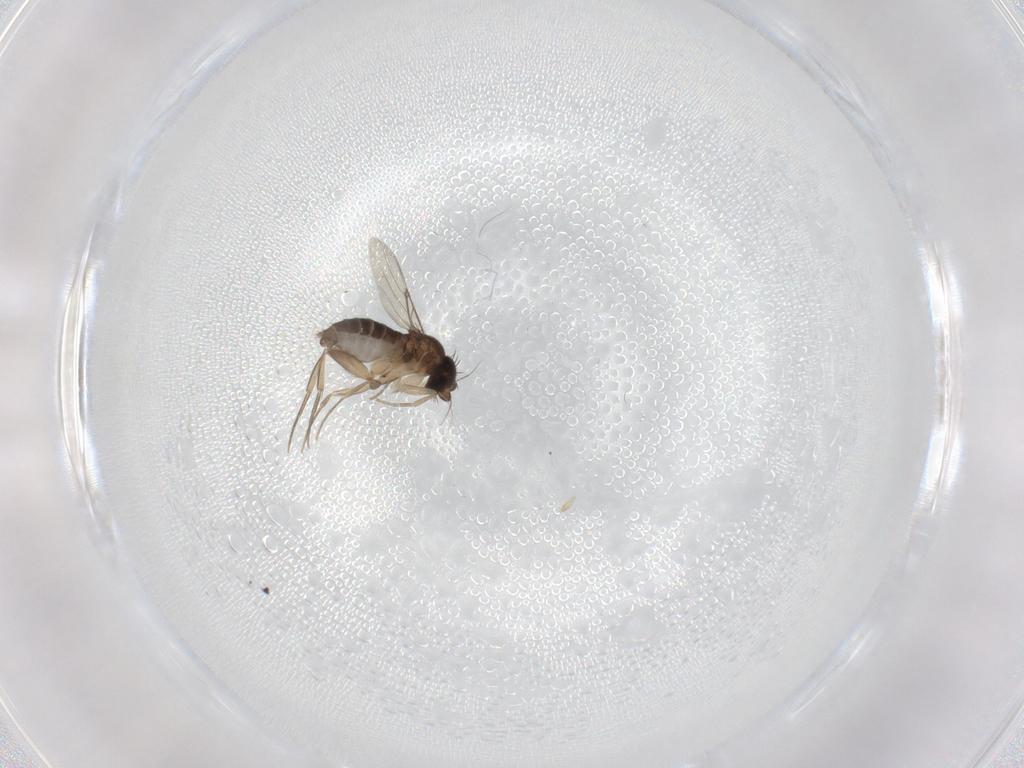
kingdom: Animalia
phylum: Arthropoda
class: Insecta
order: Diptera
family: Phoridae
